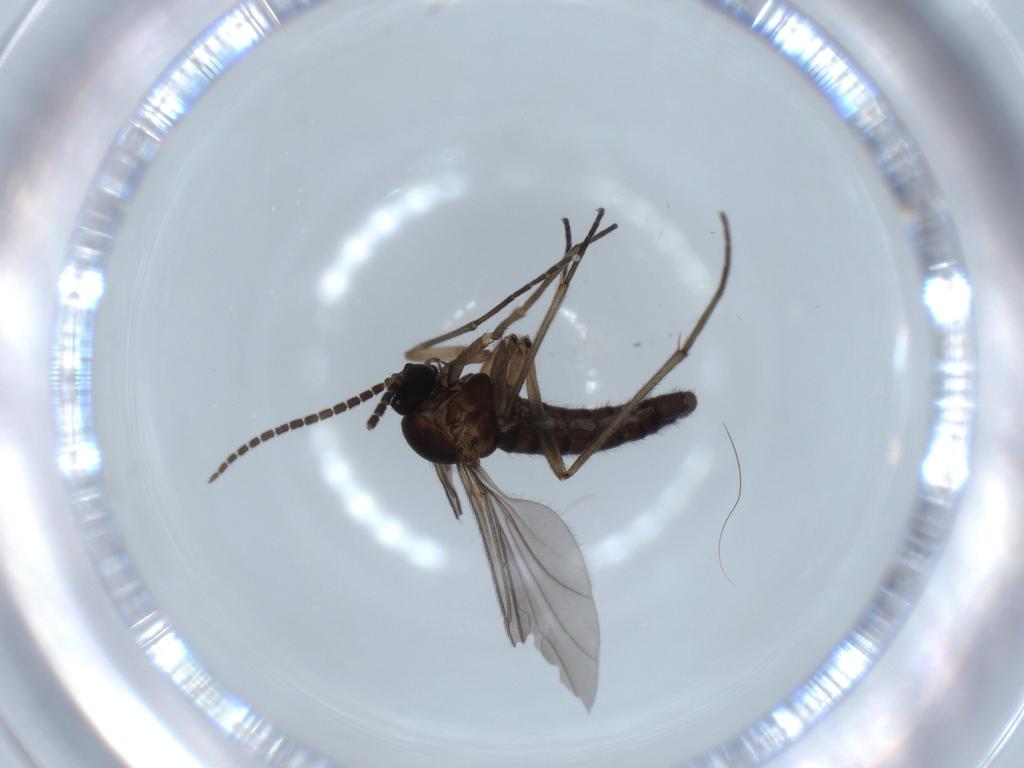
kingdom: Animalia
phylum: Arthropoda
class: Insecta
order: Diptera
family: Sciaridae
